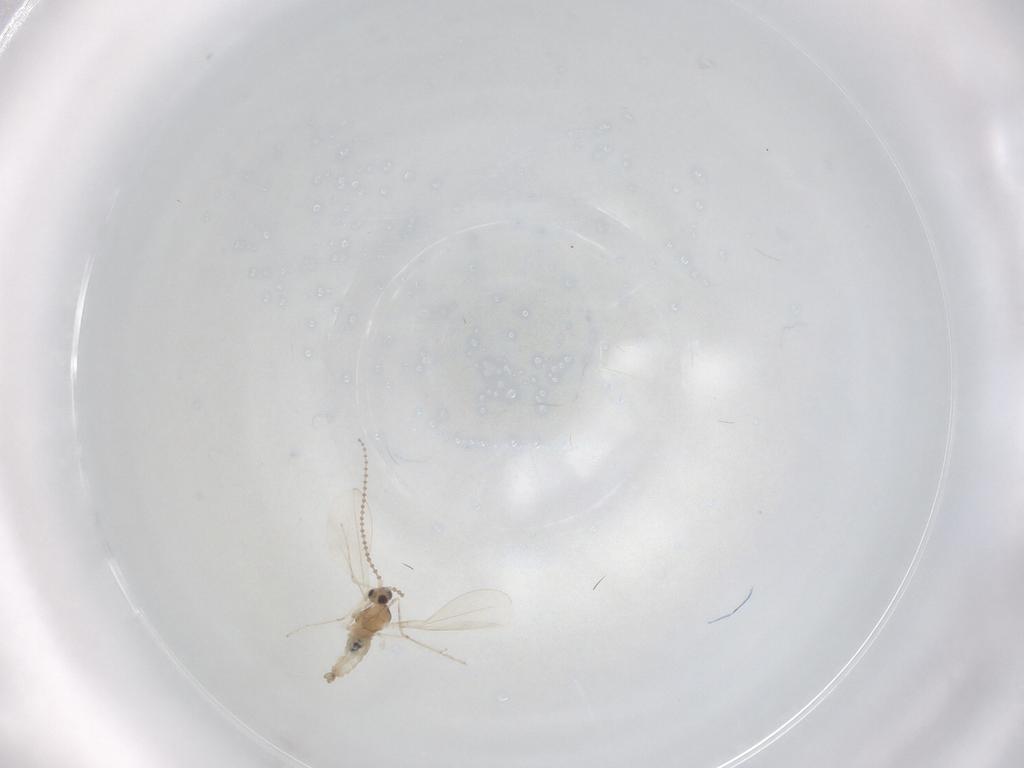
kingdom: Animalia
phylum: Arthropoda
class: Insecta
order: Diptera
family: Cecidomyiidae
